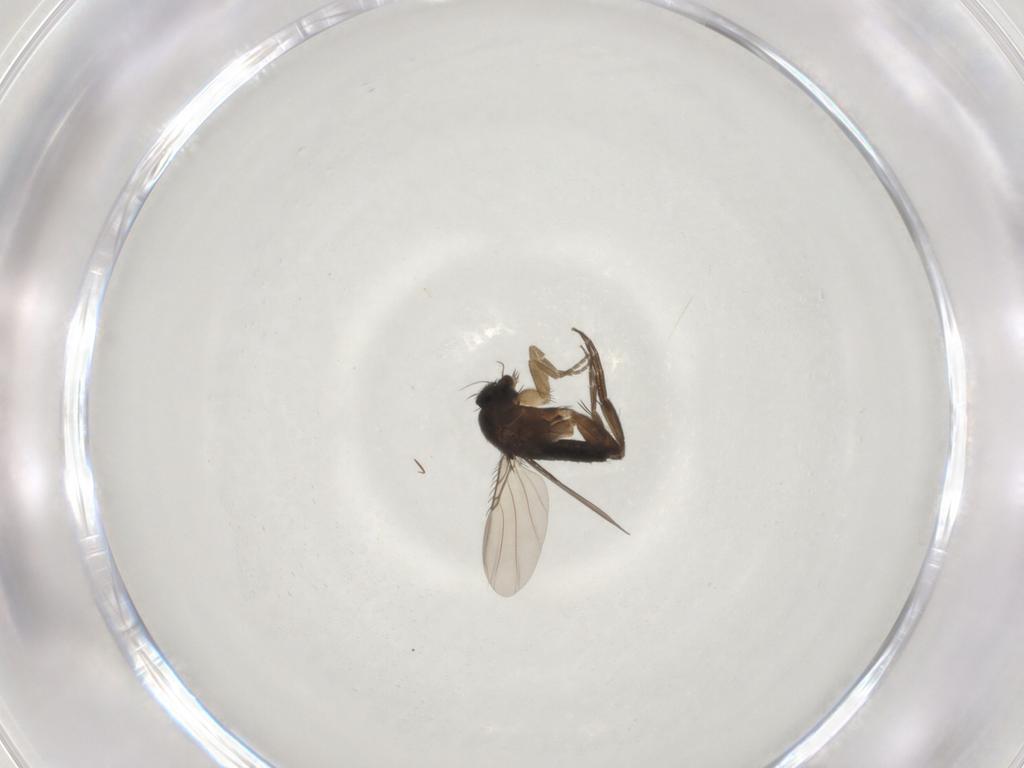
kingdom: Animalia
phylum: Arthropoda
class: Insecta
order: Diptera
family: Phoridae
